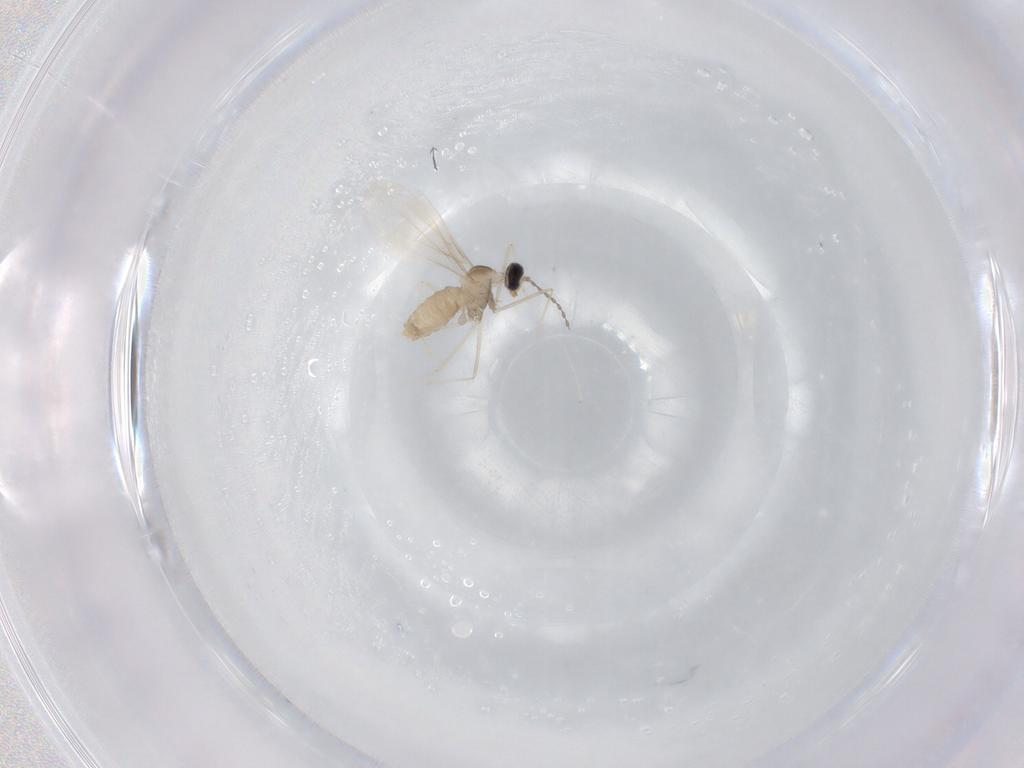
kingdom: Animalia
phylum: Arthropoda
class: Insecta
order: Diptera
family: Cecidomyiidae
